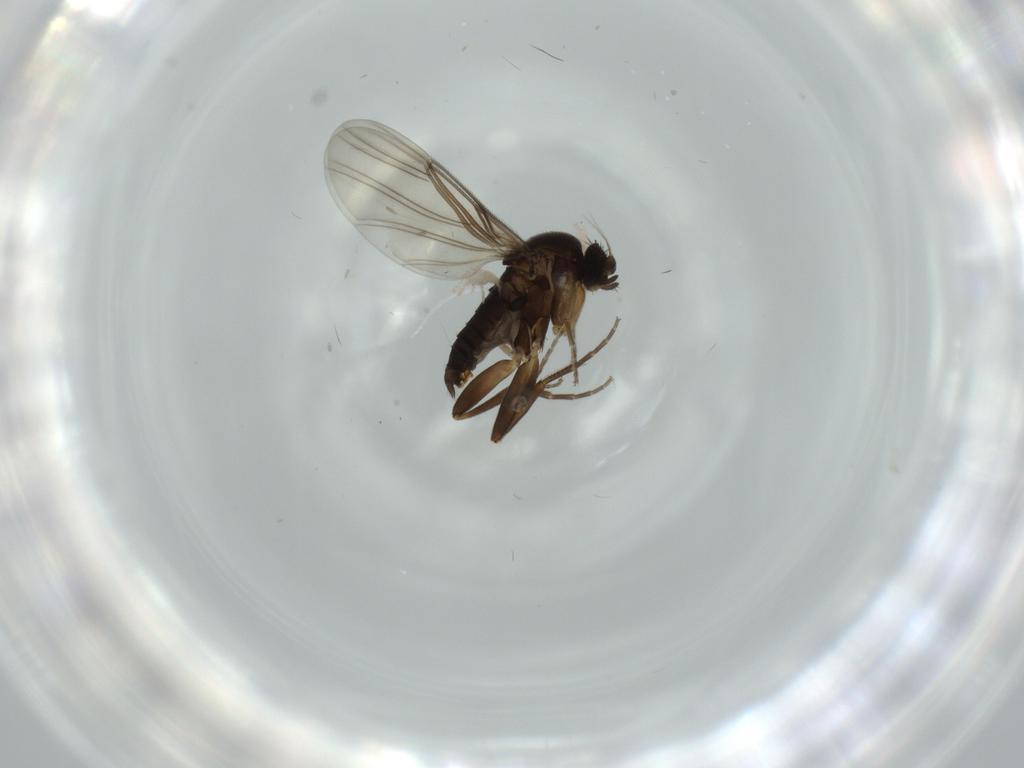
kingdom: Animalia
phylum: Arthropoda
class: Insecta
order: Diptera
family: Phoridae
